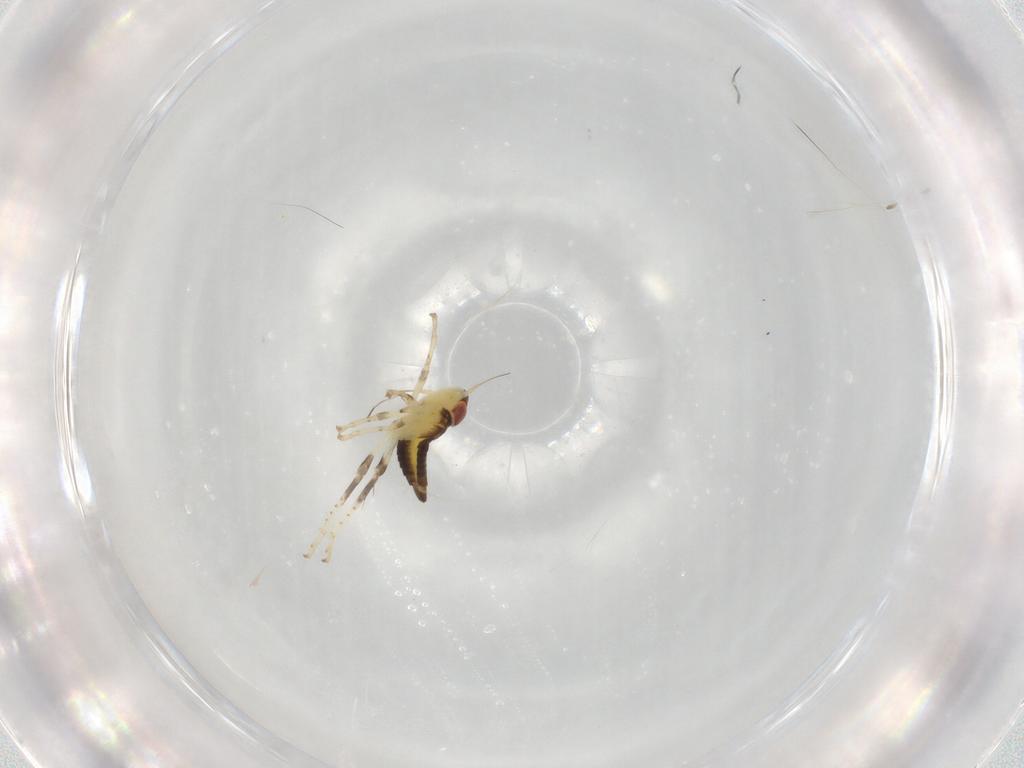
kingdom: Animalia
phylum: Arthropoda
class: Insecta
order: Hemiptera
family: Cicadellidae
